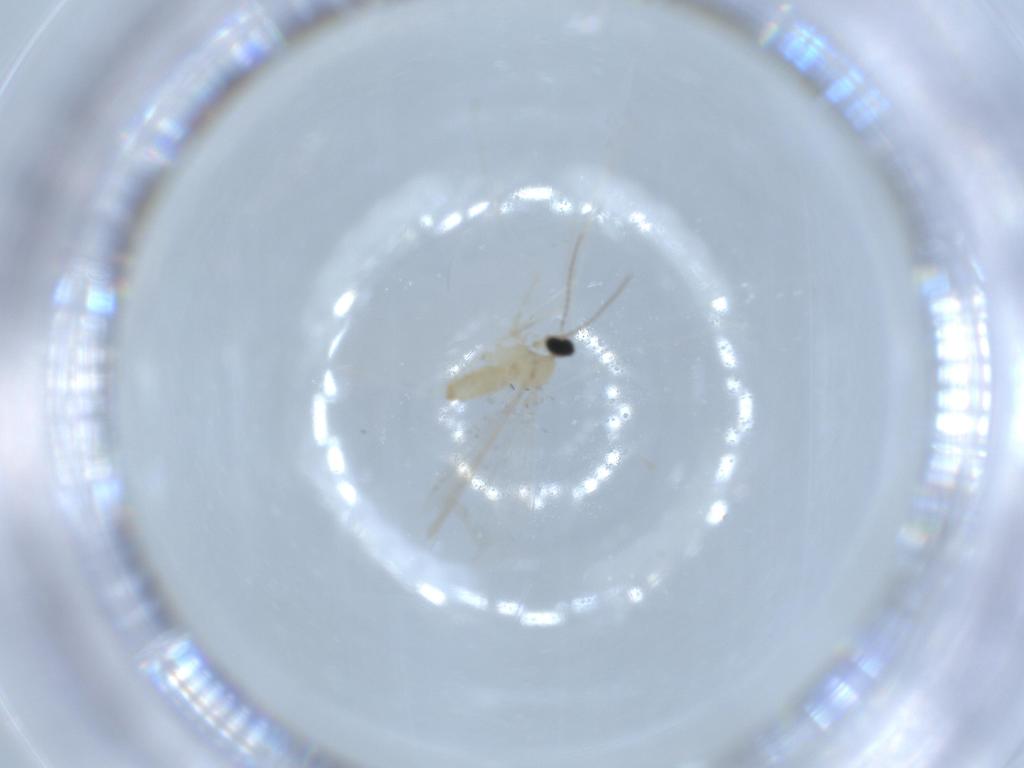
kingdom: Animalia
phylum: Arthropoda
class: Insecta
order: Diptera
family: Cecidomyiidae
